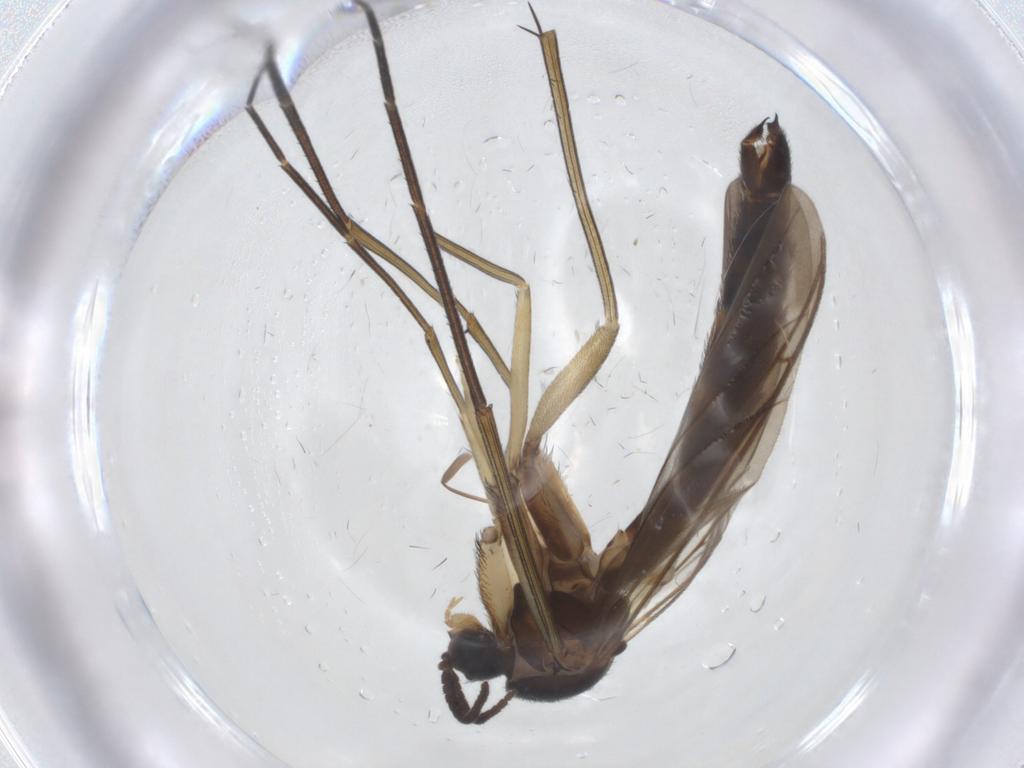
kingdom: Animalia
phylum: Arthropoda
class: Insecta
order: Diptera
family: Keroplatidae
